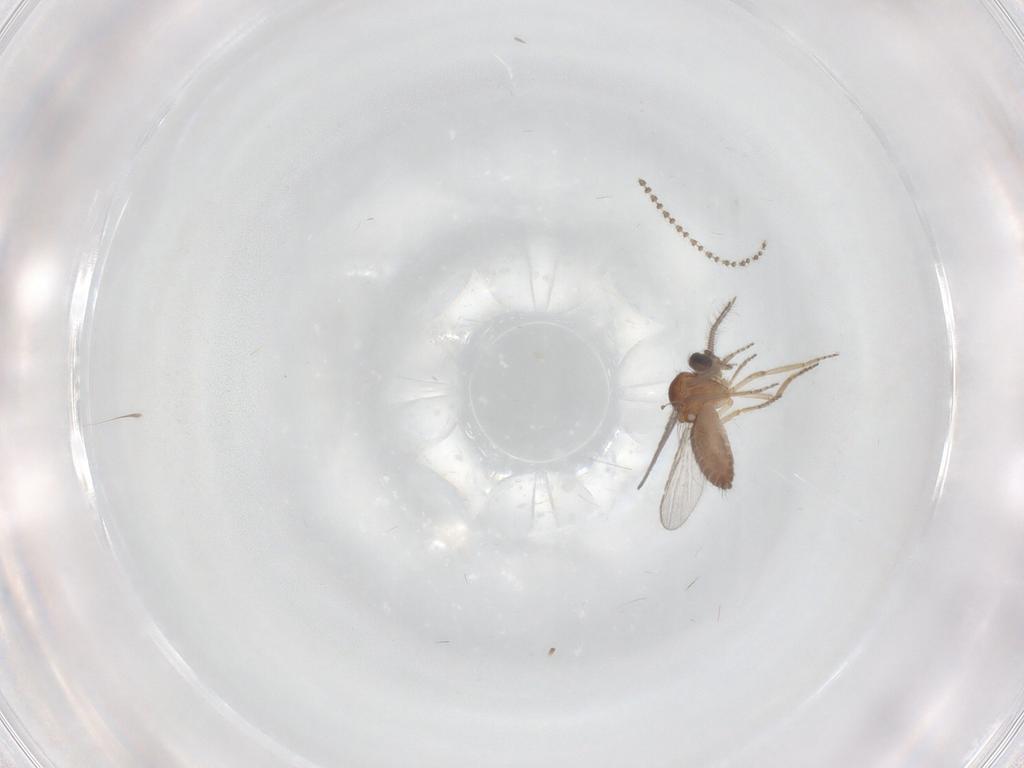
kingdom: Animalia
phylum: Arthropoda
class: Insecta
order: Diptera
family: Ceratopogonidae
